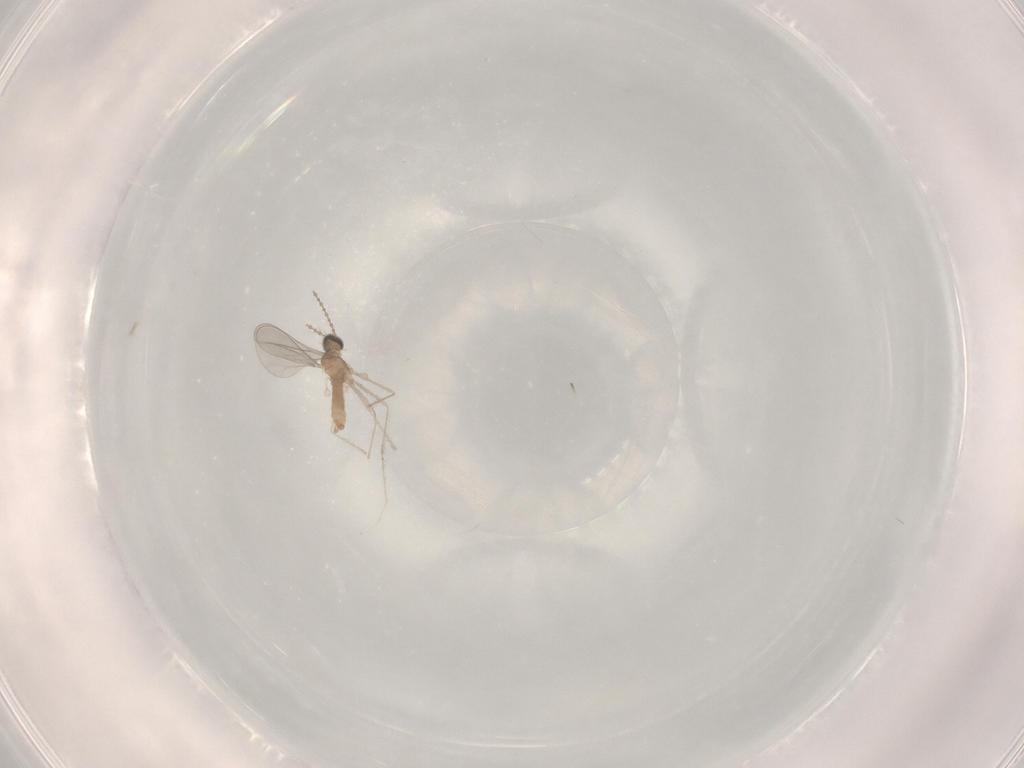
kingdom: Animalia
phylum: Arthropoda
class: Insecta
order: Diptera
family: Cecidomyiidae
